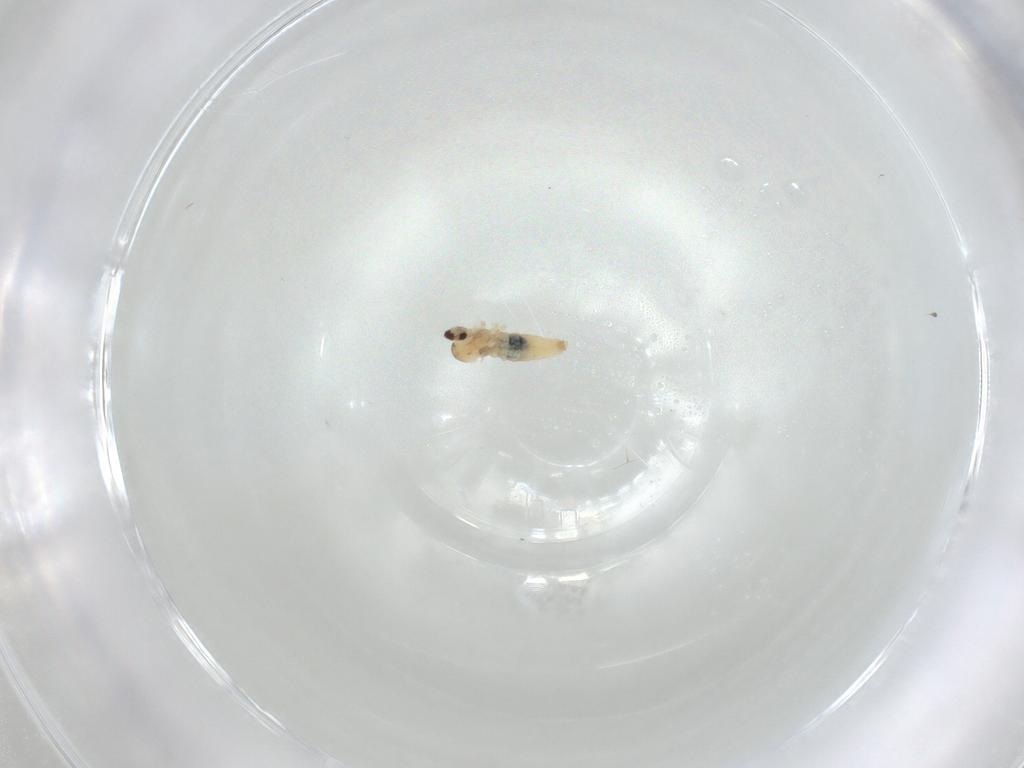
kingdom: Animalia
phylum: Arthropoda
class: Insecta
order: Diptera
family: Cecidomyiidae
